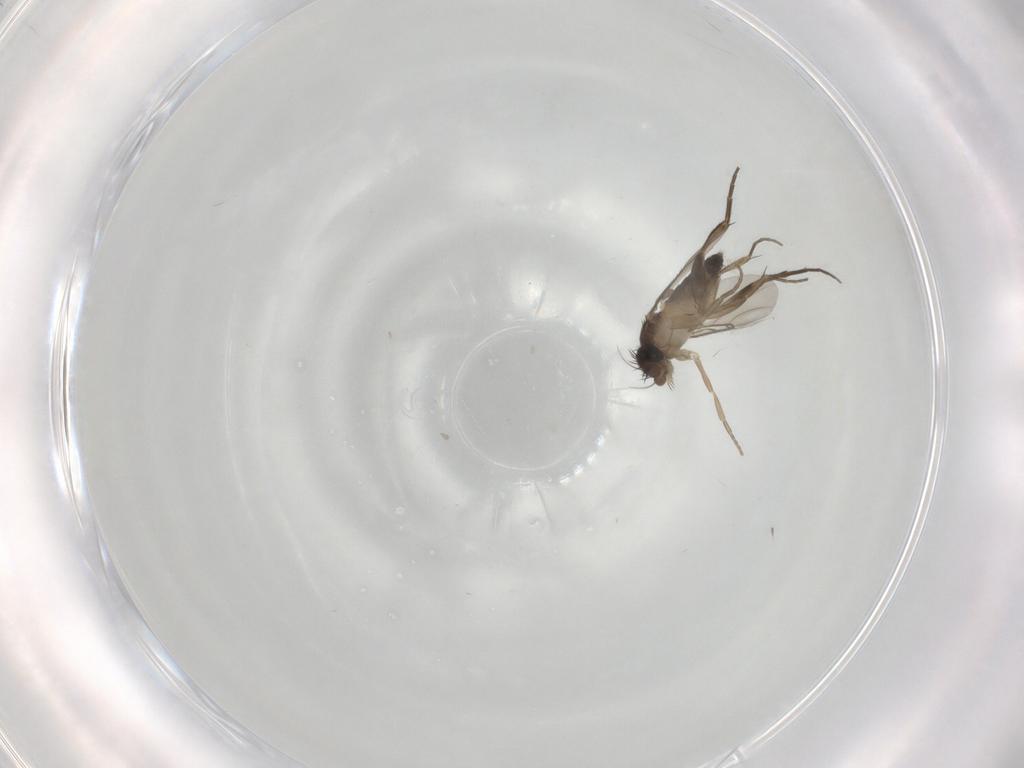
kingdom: Animalia
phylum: Arthropoda
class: Insecta
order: Diptera
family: Phoridae
